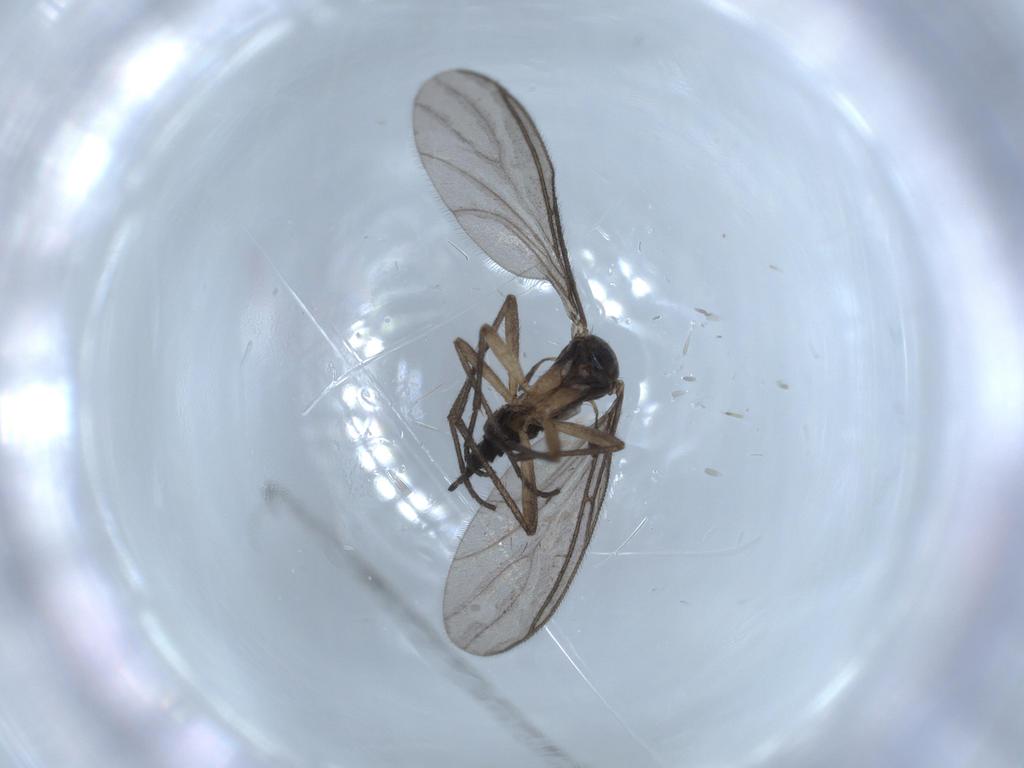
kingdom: Animalia
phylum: Arthropoda
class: Insecta
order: Diptera
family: Sciaridae
